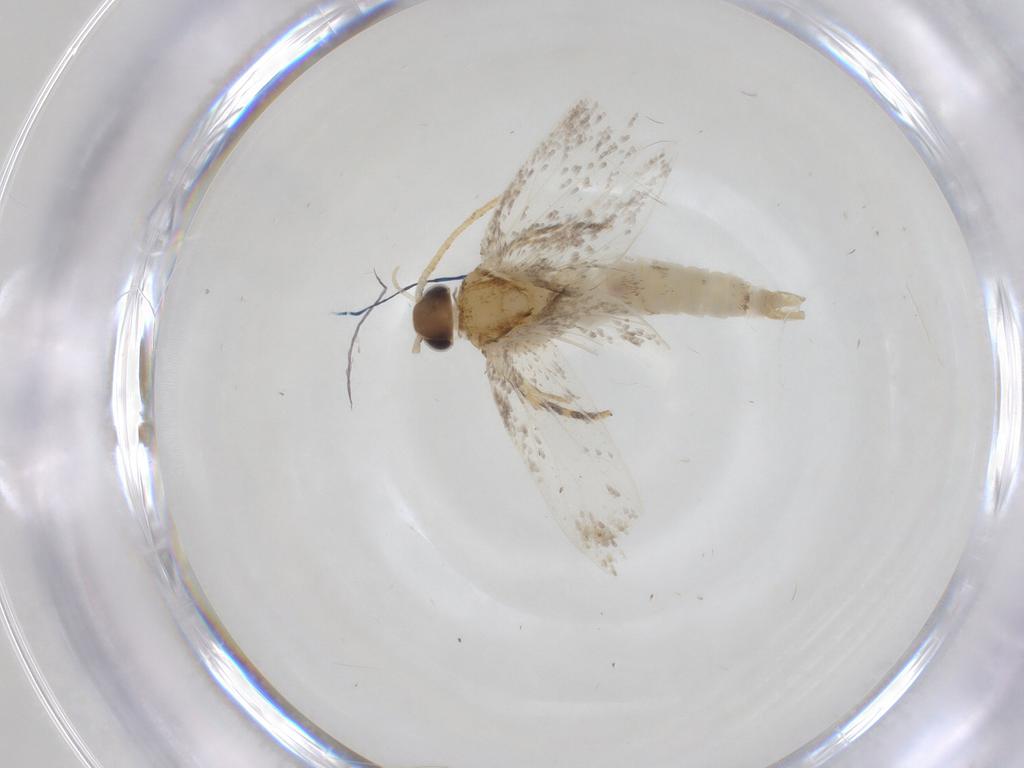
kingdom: Animalia
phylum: Arthropoda
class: Insecta
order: Lepidoptera
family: Oecophoridae
